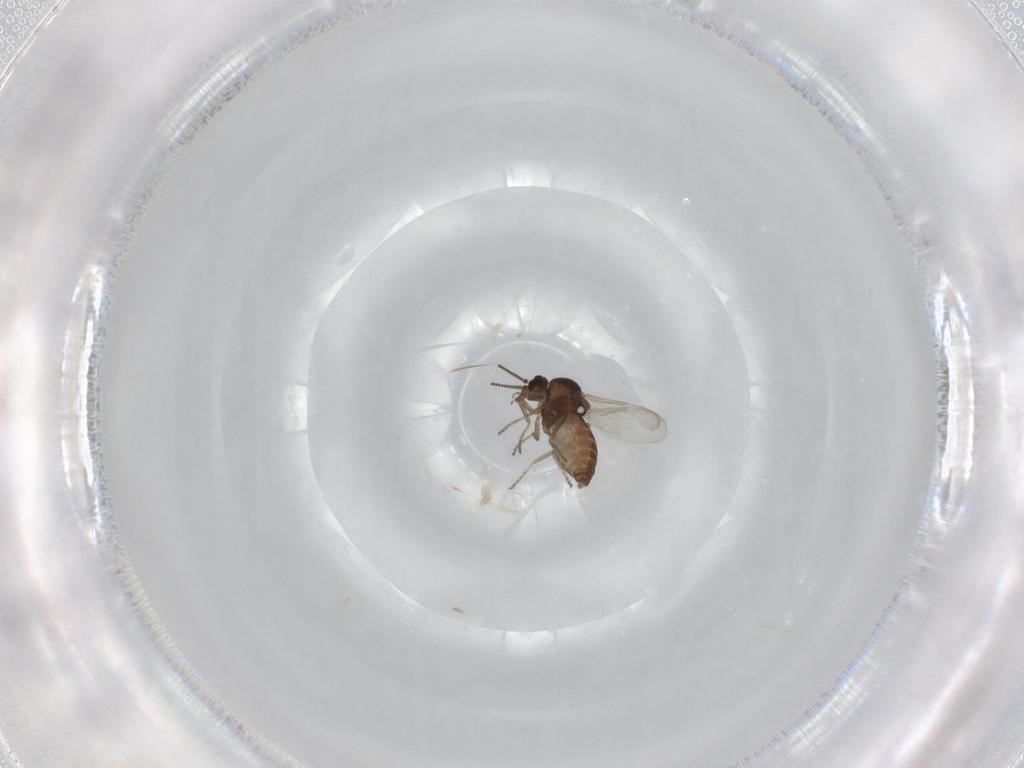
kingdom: Animalia
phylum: Arthropoda
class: Insecta
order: Diptera
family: Ceratopogonidae
